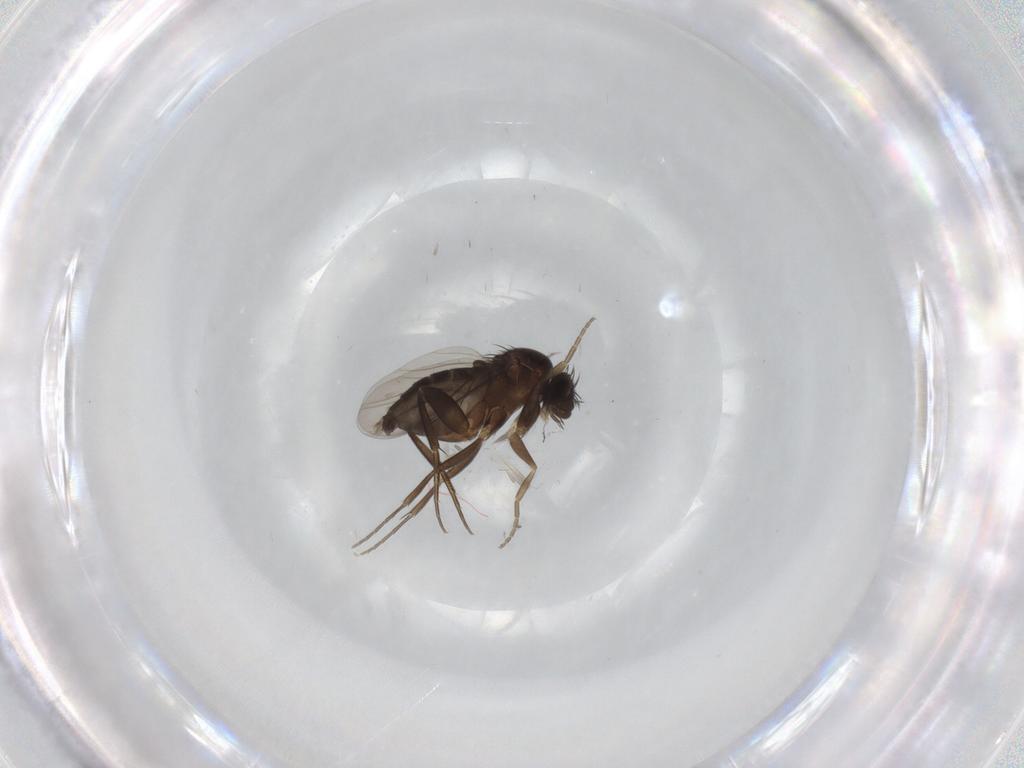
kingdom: Animalia
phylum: Arthropoda
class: Insecta
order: Diptera
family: Phoridae
